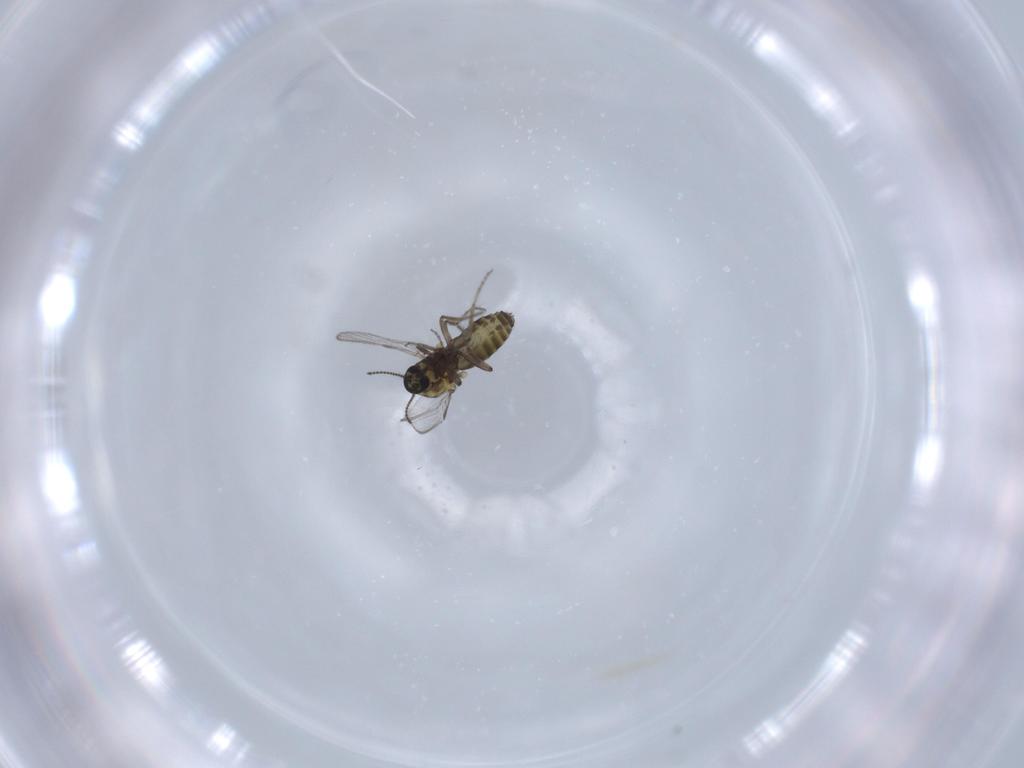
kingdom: Animalia
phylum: Arthropoda
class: Insecta
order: Diptera
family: Ceratopogonidae
